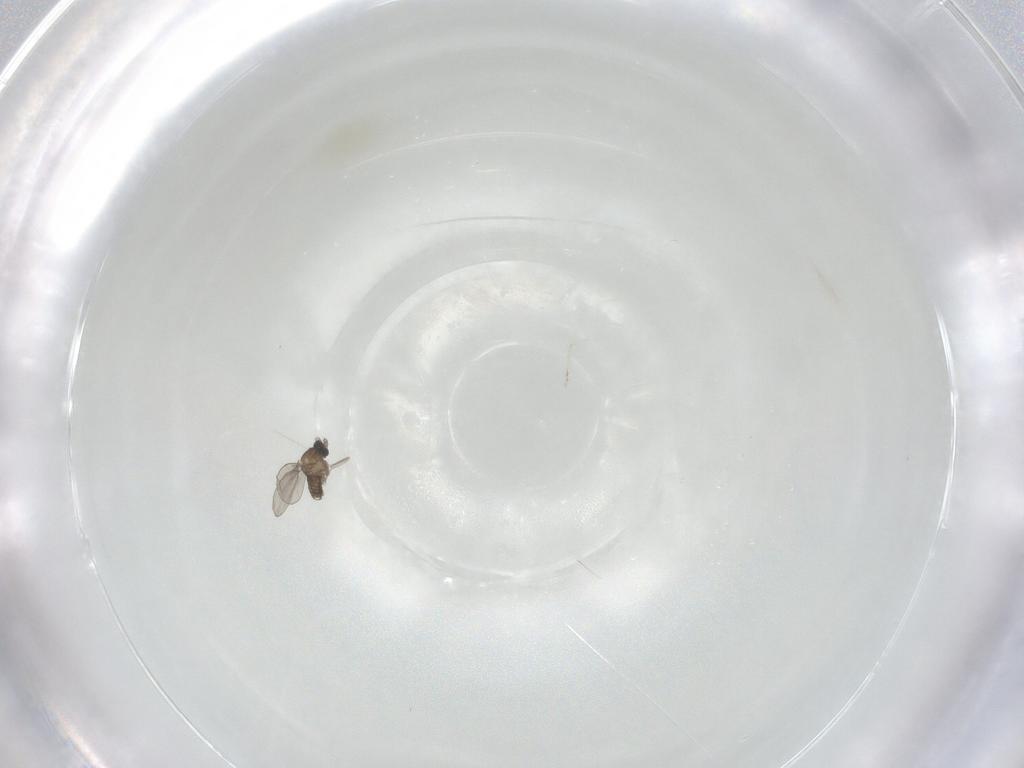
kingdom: Animalia
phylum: Arthropoda
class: Insecta
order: Diptera
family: Cecidomyiidae
